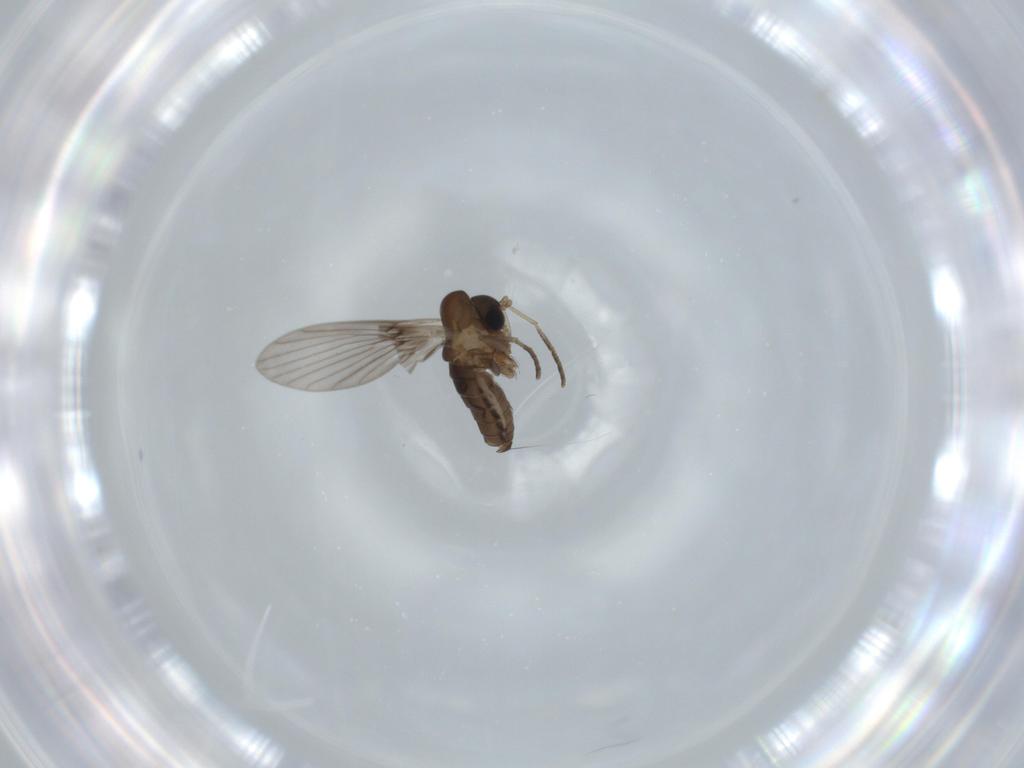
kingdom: Animalia
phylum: Arthropoda
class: Insecta
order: Diptera
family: Psychodidae
